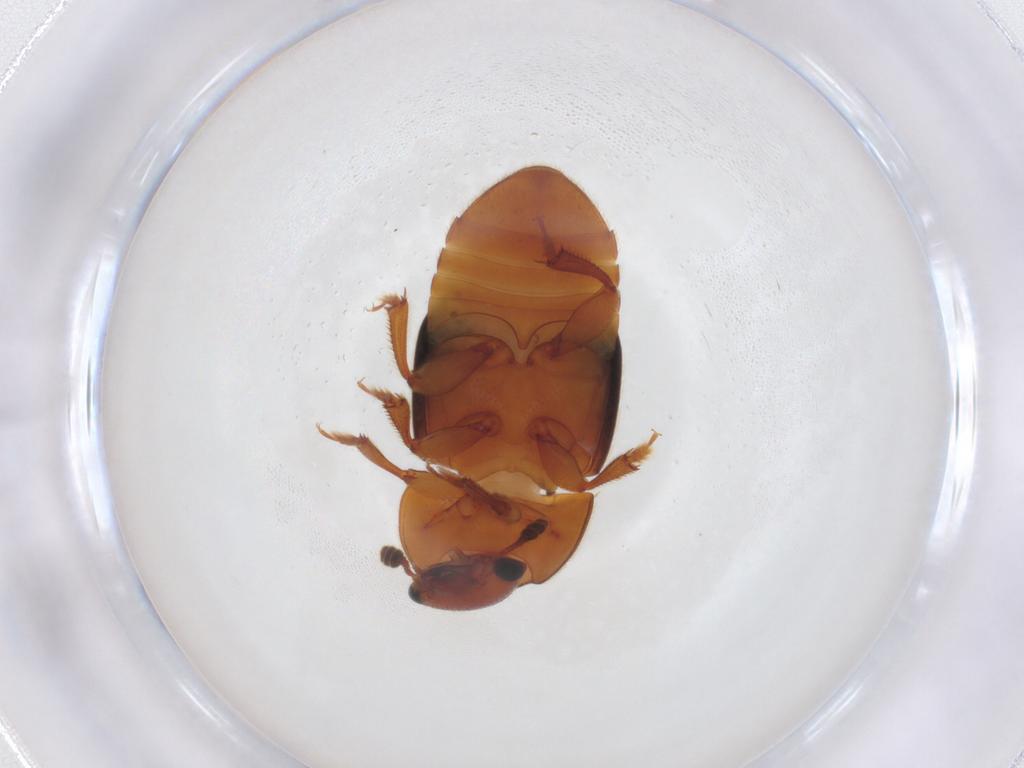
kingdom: Animalia
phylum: Arthropoda
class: Insecta
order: Coleoptera
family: Nitidulidae
